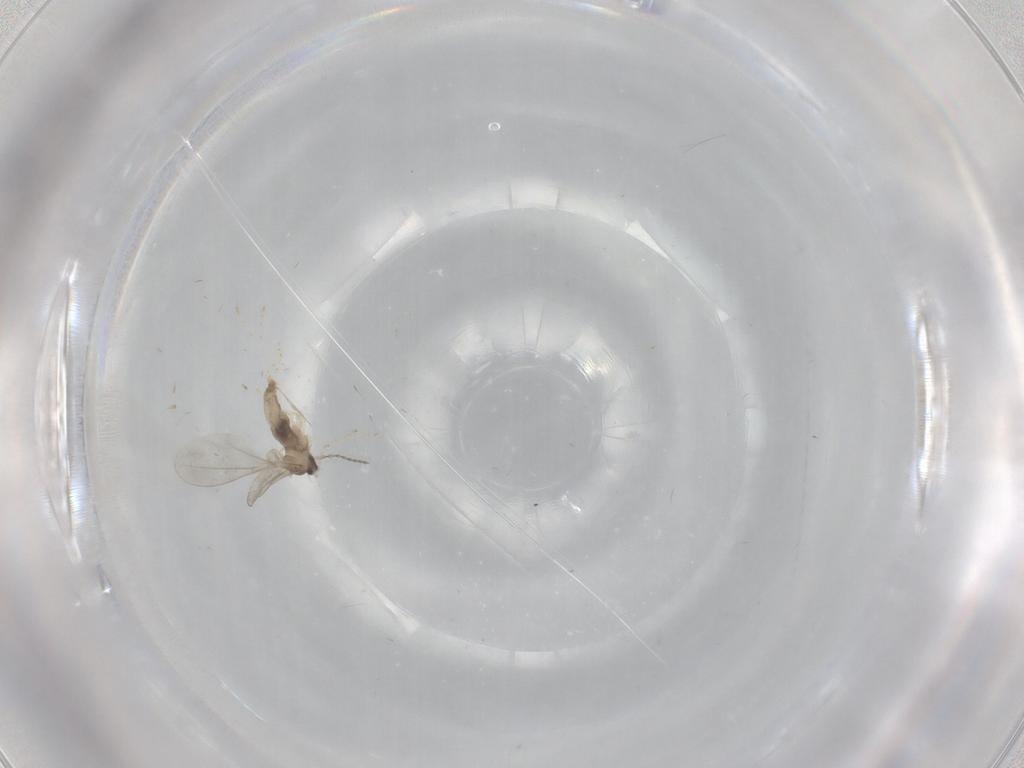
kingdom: Animalia
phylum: Arthropoda
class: Insecta
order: Diptera
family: Cecidomyiidae
